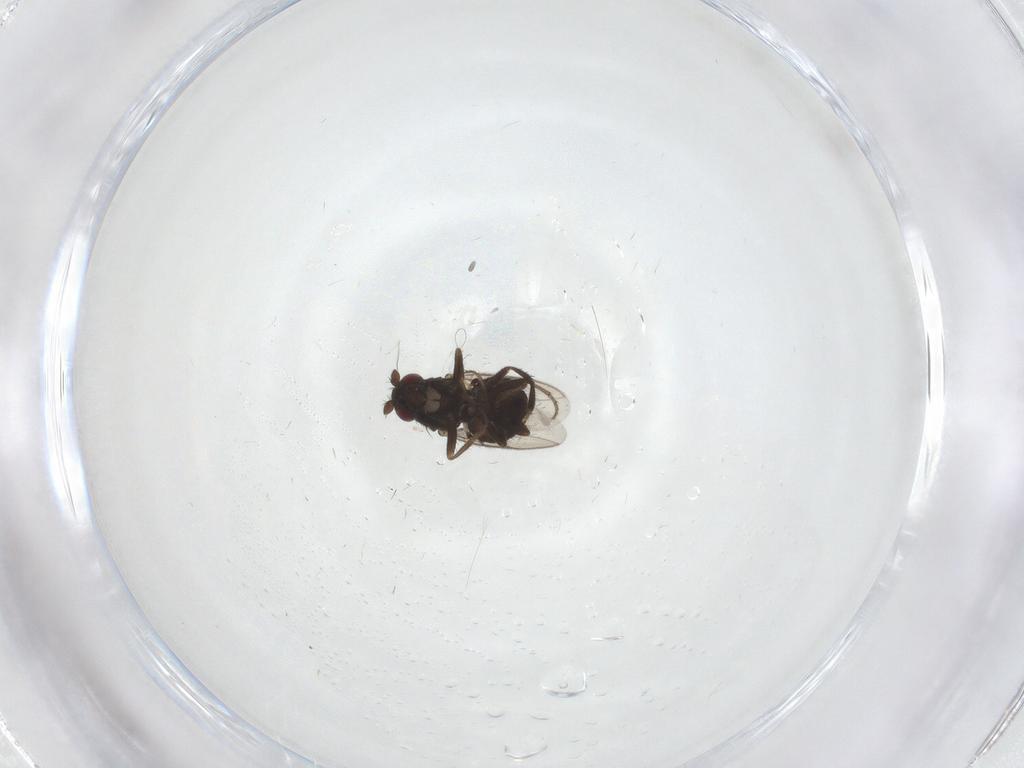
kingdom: Animalia
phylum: Arthropoda
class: Insecta
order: Diptera
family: Sphaeroceridae
